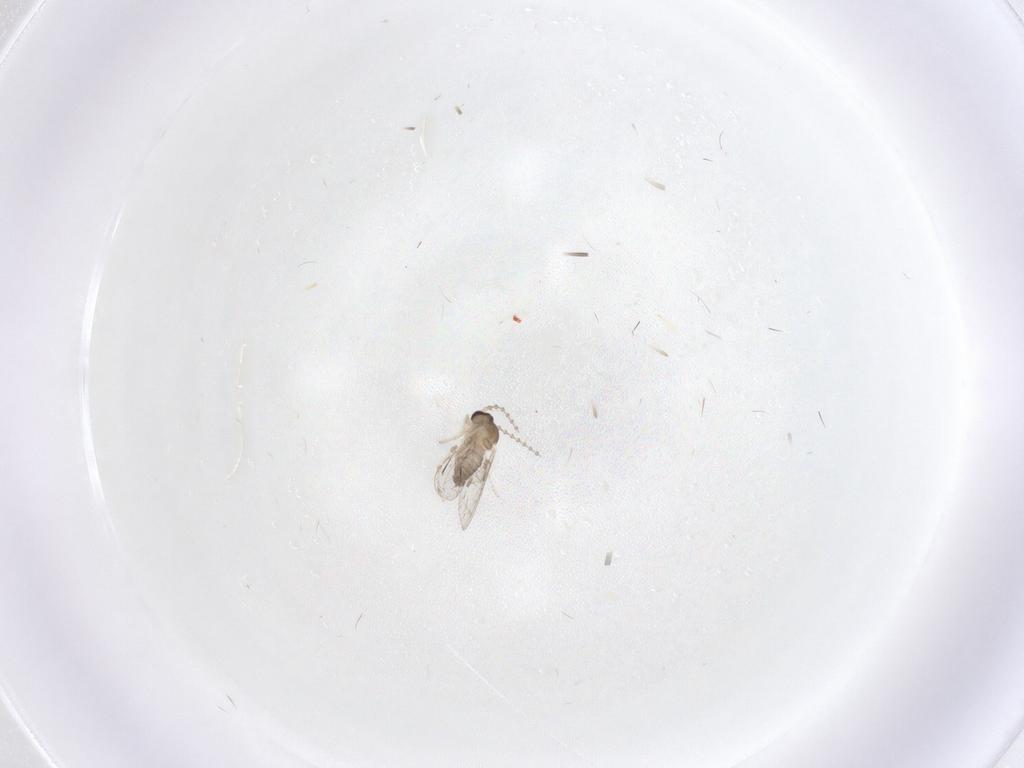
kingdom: Animalia
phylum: Arthropoda
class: Insecta
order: Diptera
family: Cecidomyiidae
